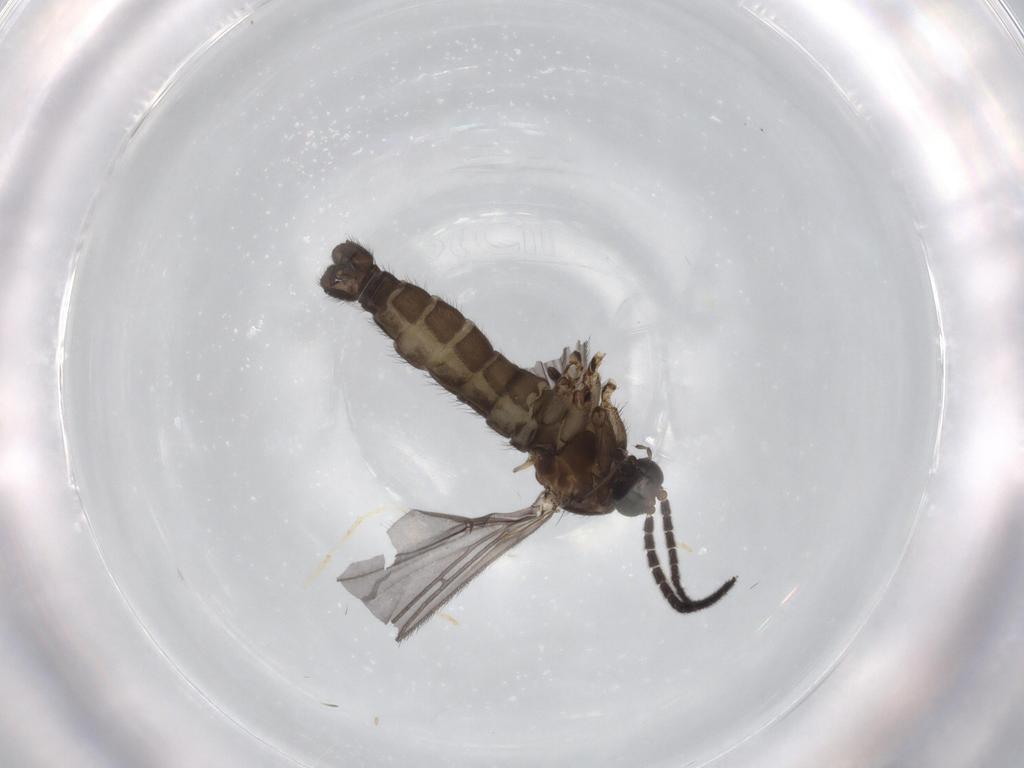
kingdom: Animalia
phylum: Arthropoda
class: Insecta
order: Diptera
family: Sciaridae
